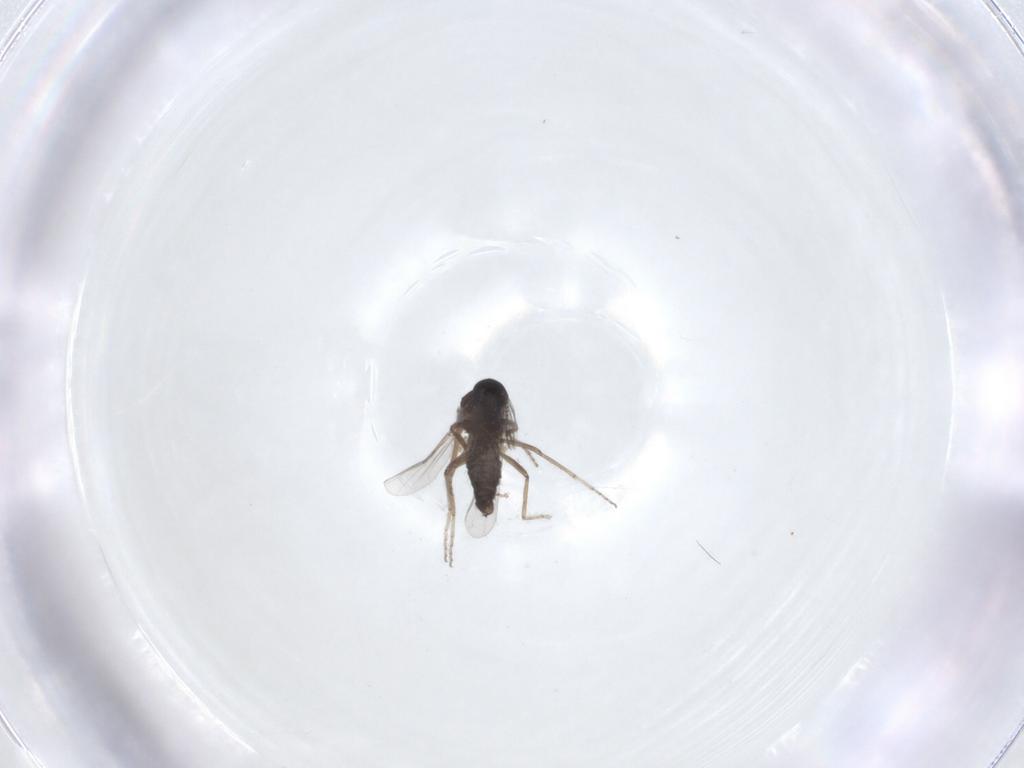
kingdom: Animalia
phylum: Arthropoda
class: Insecta
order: Diptera
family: Ceratopogonidae
